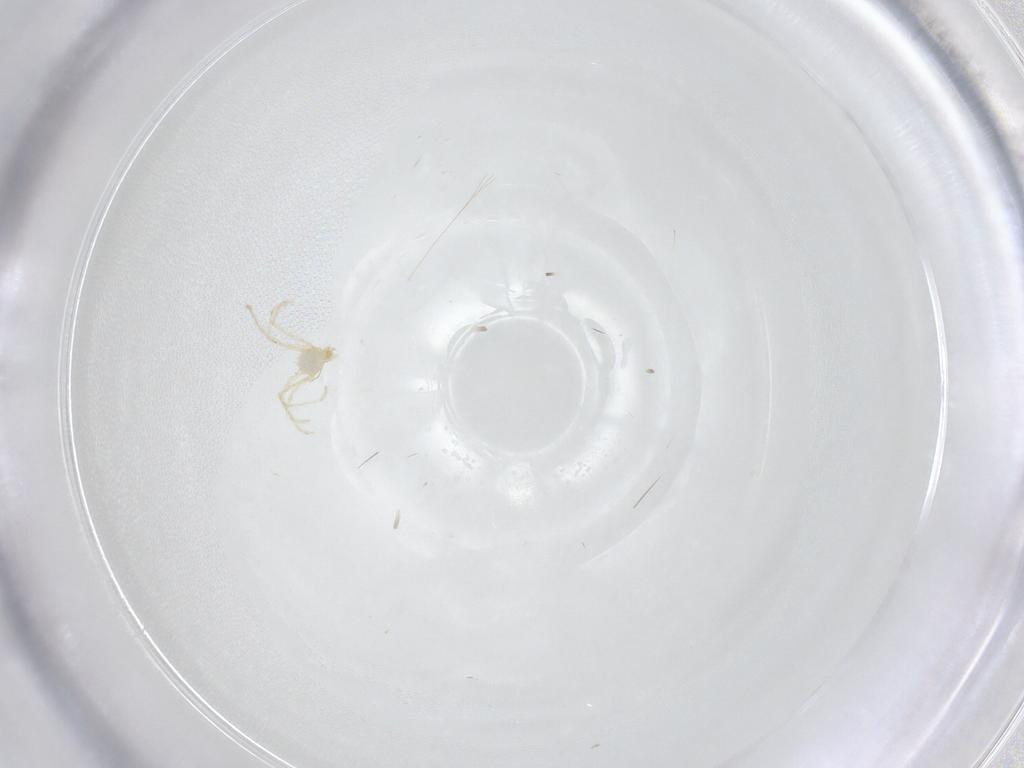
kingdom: Animalia
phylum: Arthropoda
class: Arachnida
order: Trombidiformes
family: Erythraeidae
